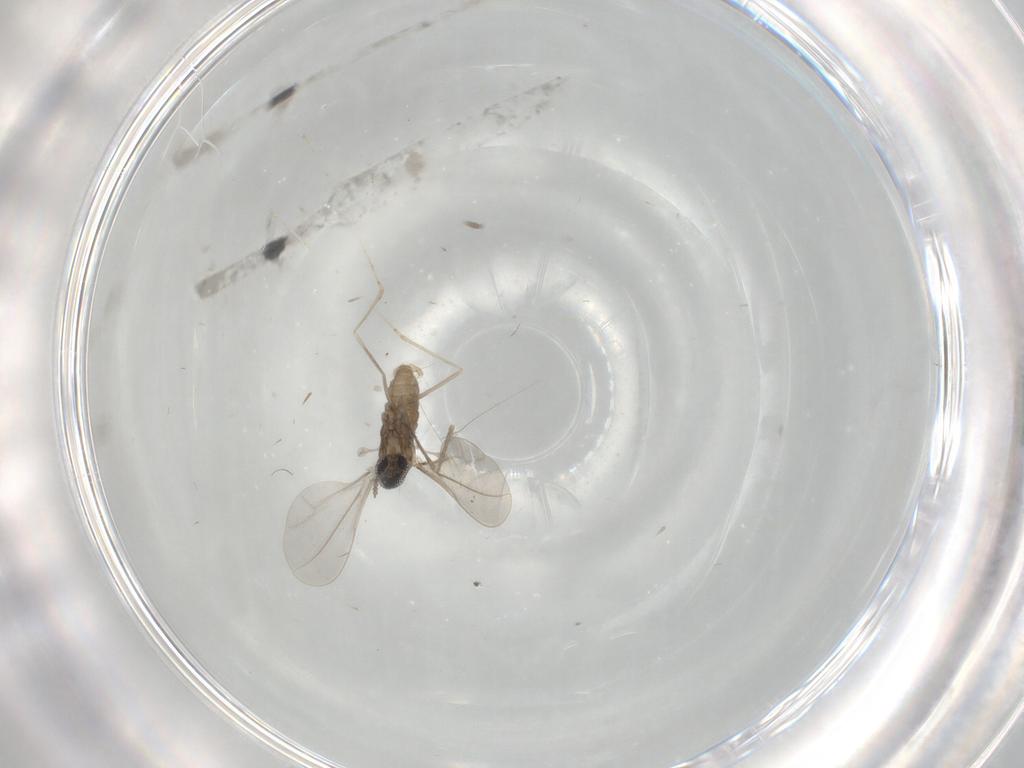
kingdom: Animalia
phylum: Arthropoda
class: Insecta
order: Diptera
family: Cecidomyiidae
